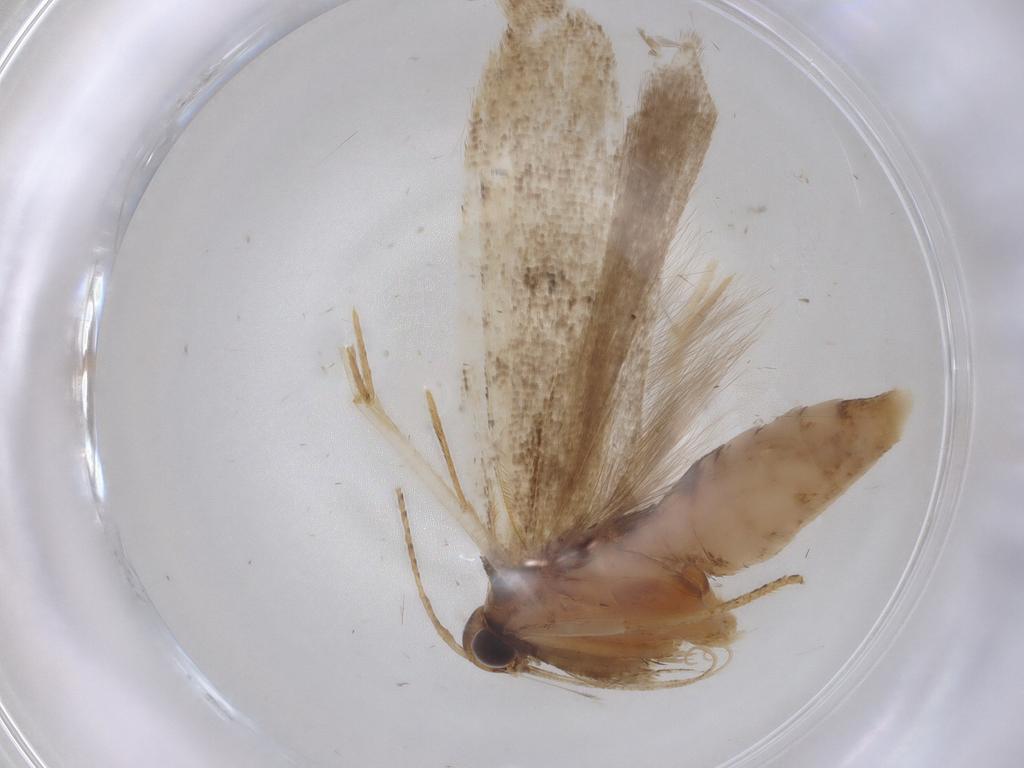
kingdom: Animalia
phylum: Arthropoda
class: Insecta
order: Lepidoptera
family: Gelechiidae
